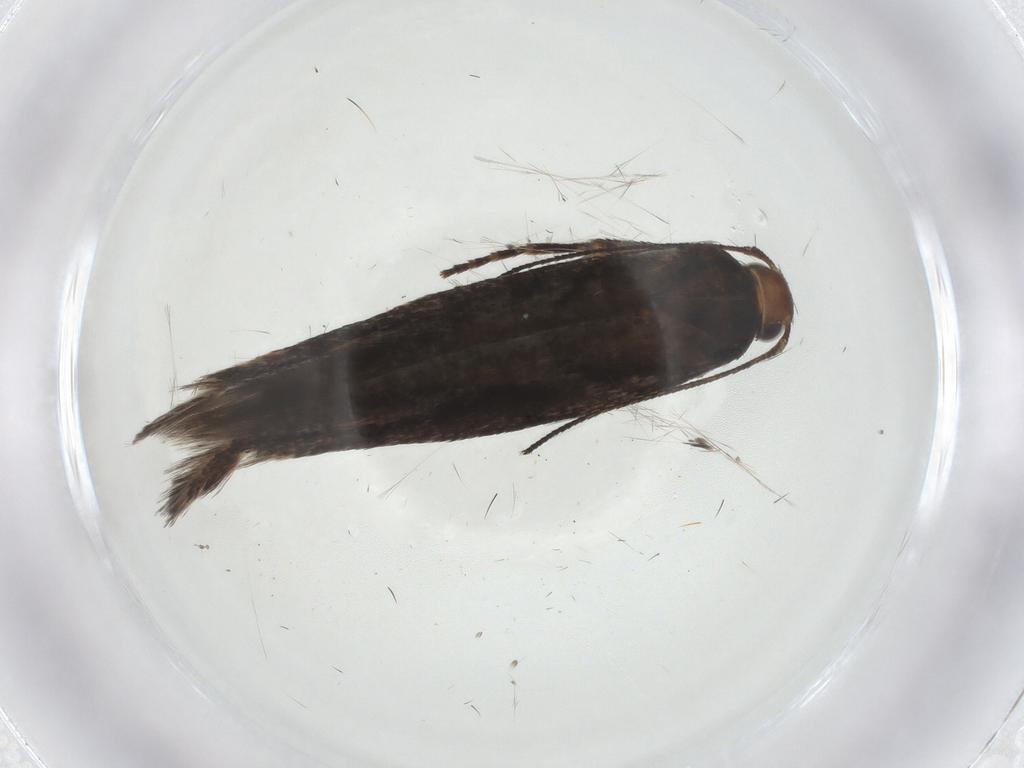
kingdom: Animalia
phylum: Arthropoda
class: Insecta
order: Lepidoptera
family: Gelechiidae
